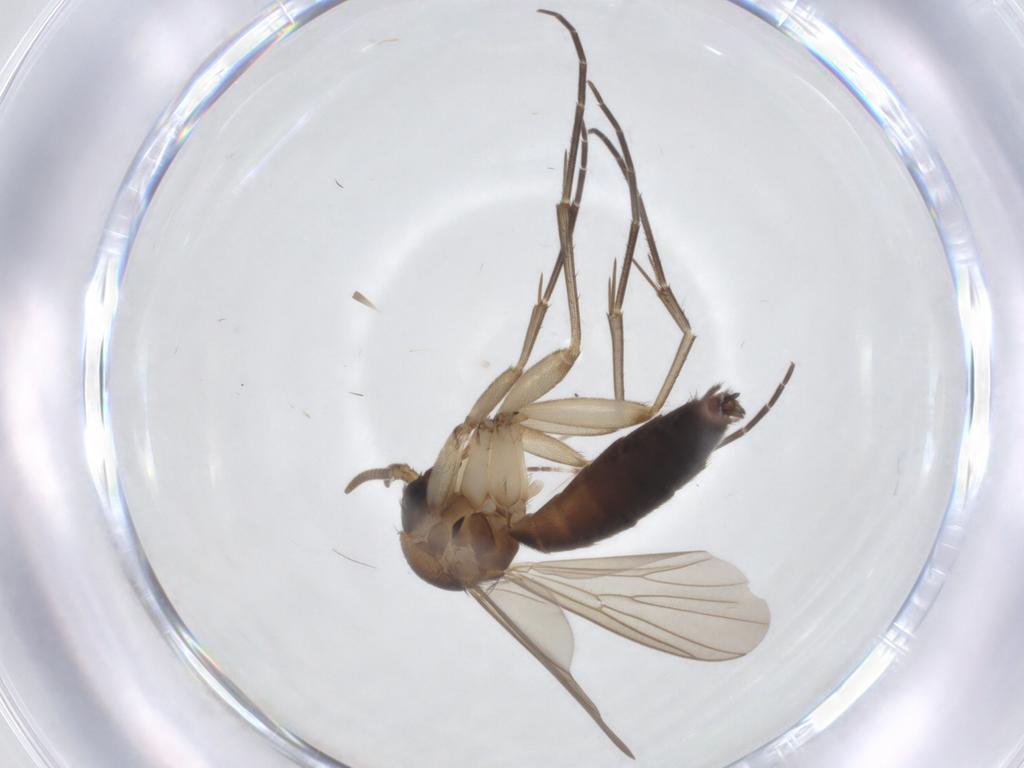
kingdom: Animalia
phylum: Arthropoda
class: Insecta
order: Diptera
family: Mycetophilidae
